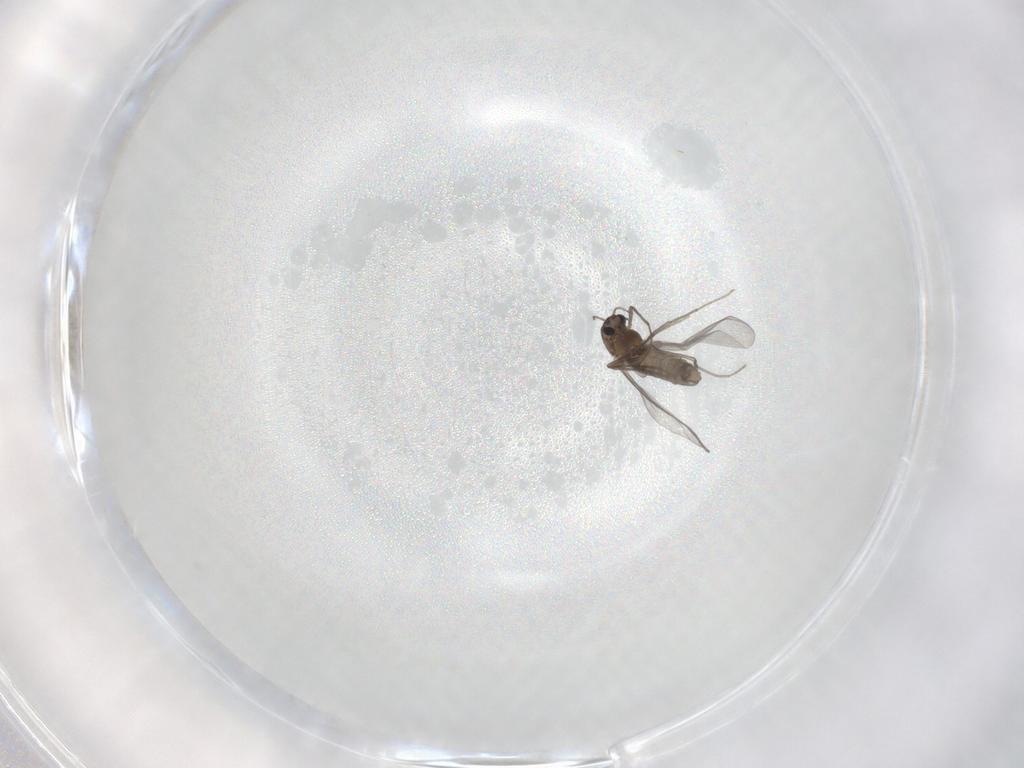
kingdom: Animalia
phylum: Arthropoda
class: Insecta
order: Diptera
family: Chironomidae
